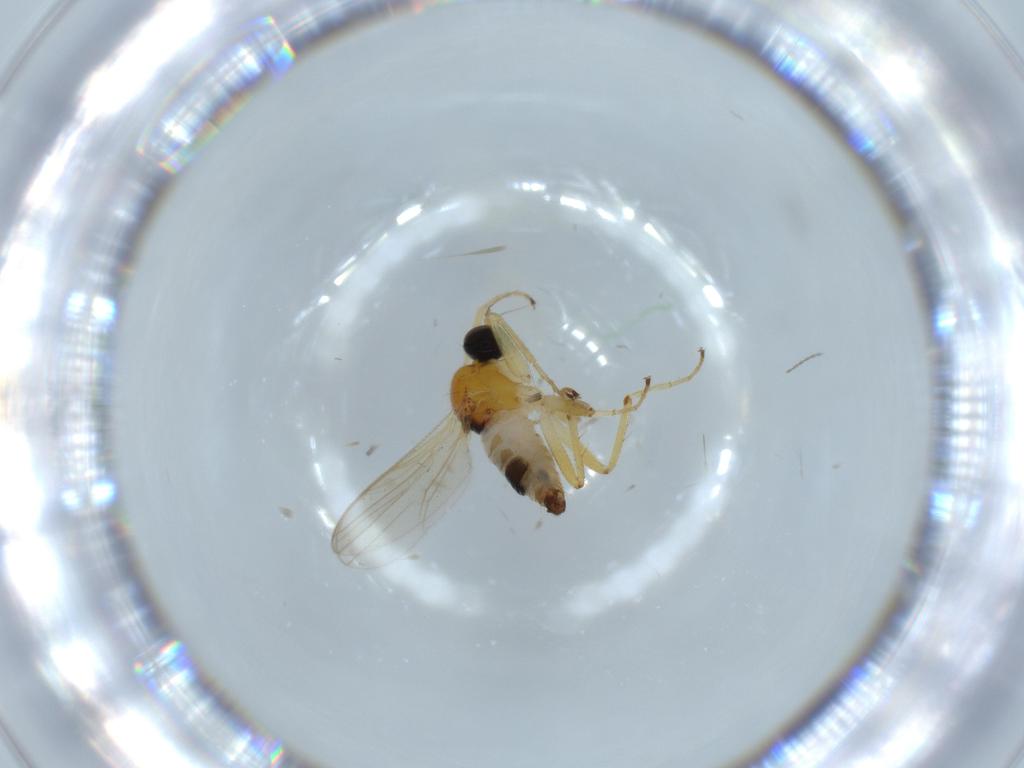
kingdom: Animalia
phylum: Arthropoda
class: Insecta
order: Diptera
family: Hybotidae
